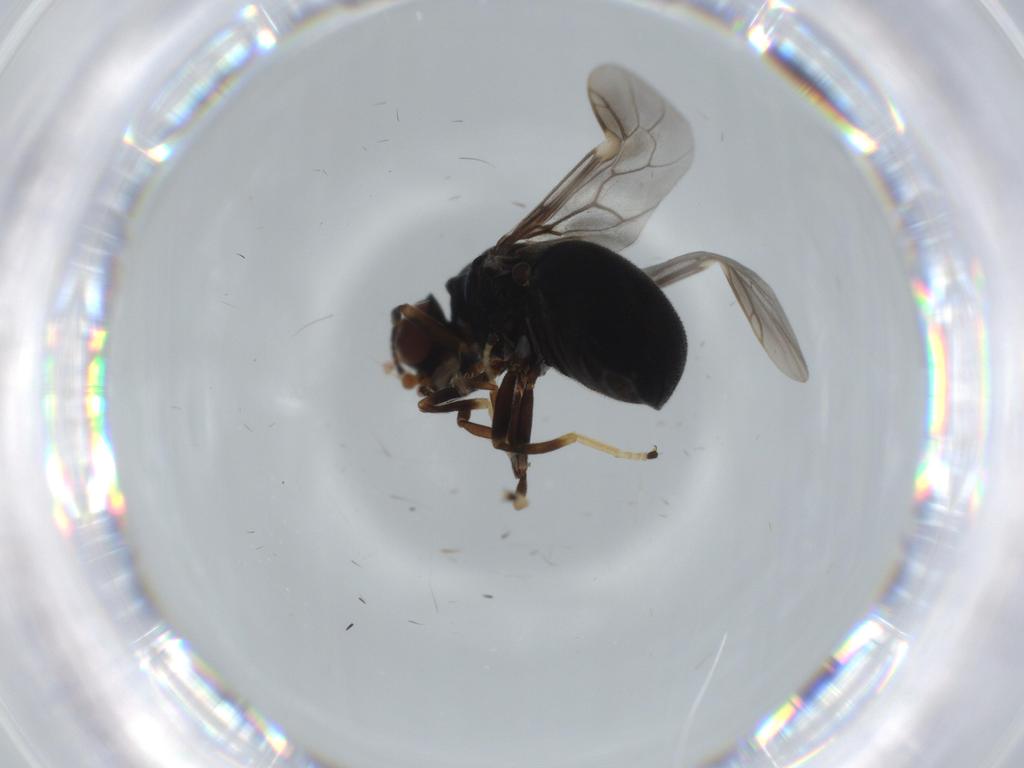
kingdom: Animalia
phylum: Arthropoda
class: Insecta
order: Diptera
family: Stratiomyidae
